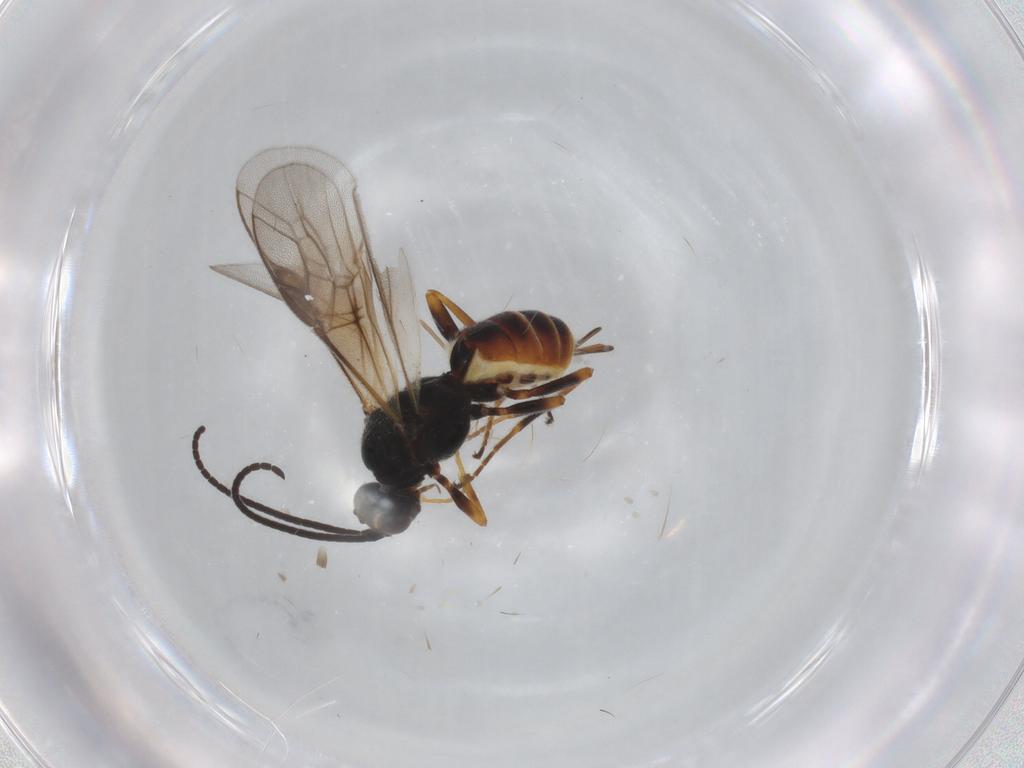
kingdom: Animalia
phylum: Arthropoda
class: Insecta
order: Hymenoptera
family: Braconidae
